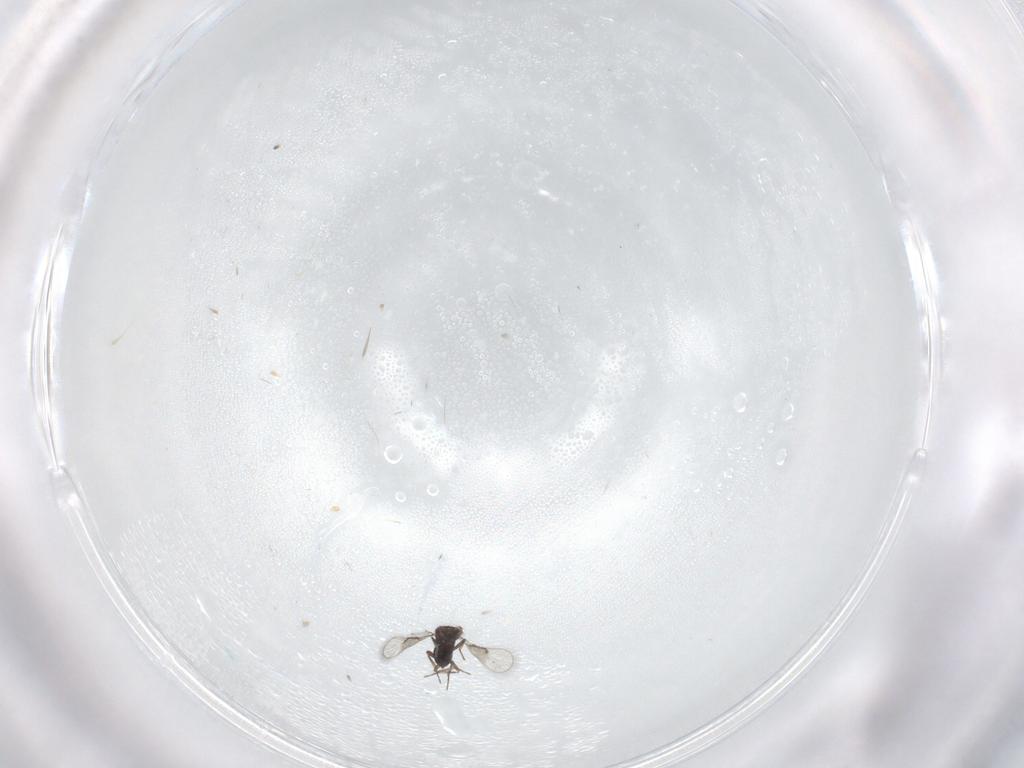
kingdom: Animalia
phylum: Arthropoda
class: Insecta
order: Hymenoptera
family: Trichogrammatidae
